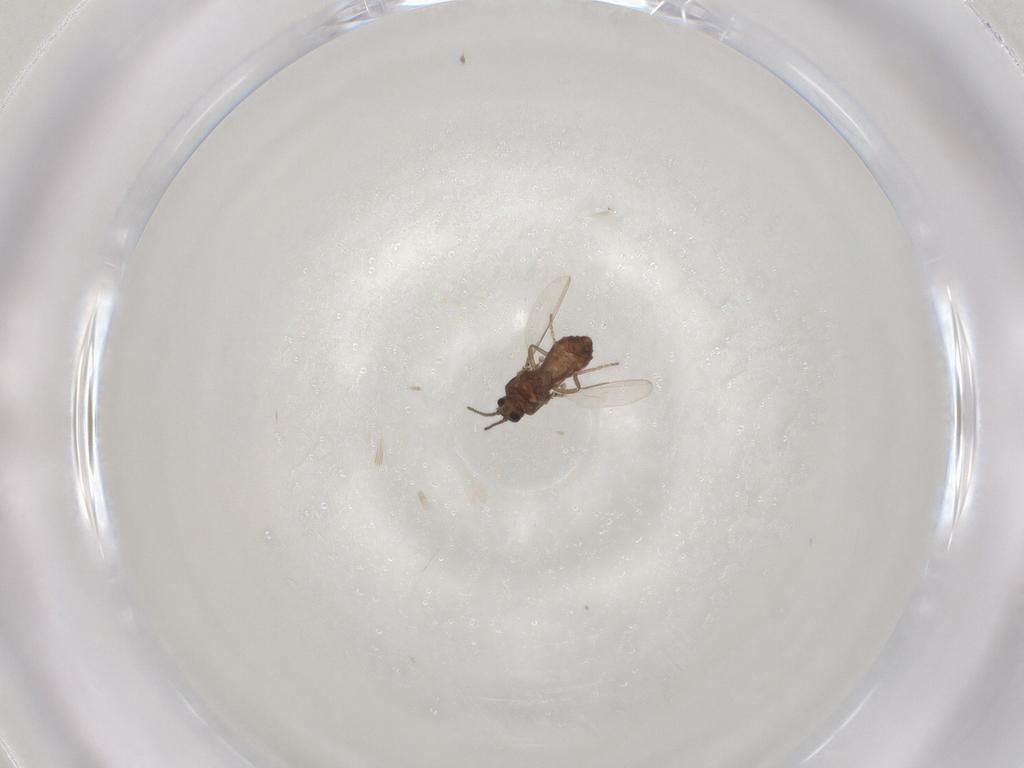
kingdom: Animalia
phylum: Arthropoda
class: Insecta
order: Diptera
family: Ceratopogonidae
